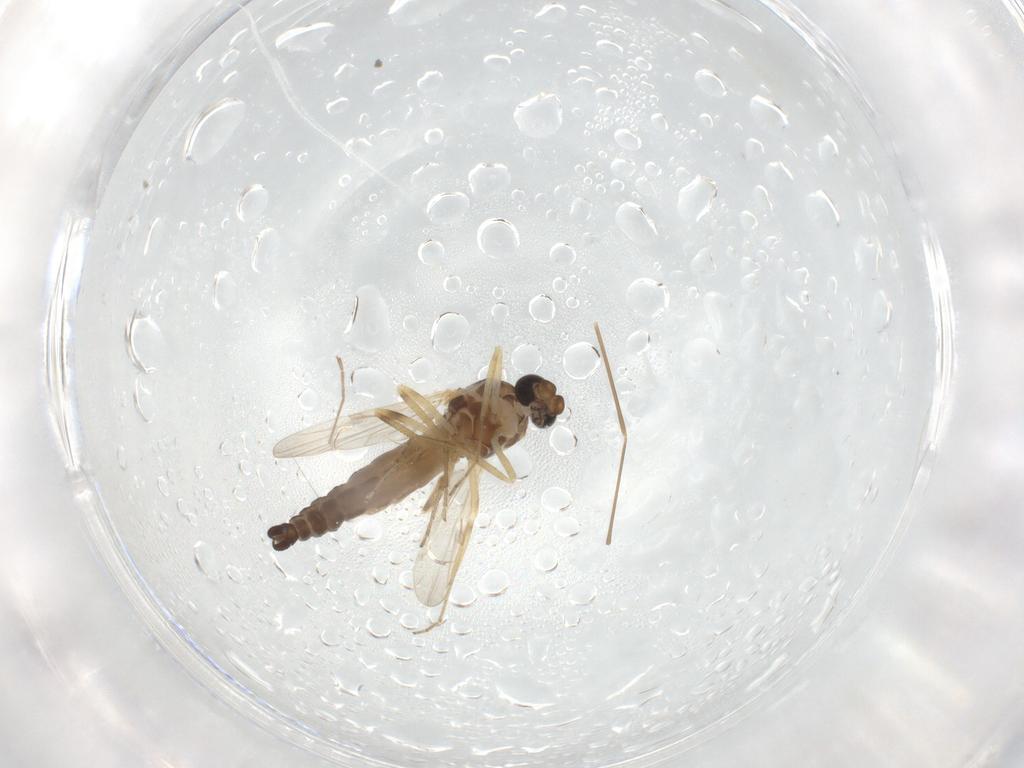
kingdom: Animalia
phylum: Arthropoda
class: Insecta
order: Diptera
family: Ceratopogonidae
